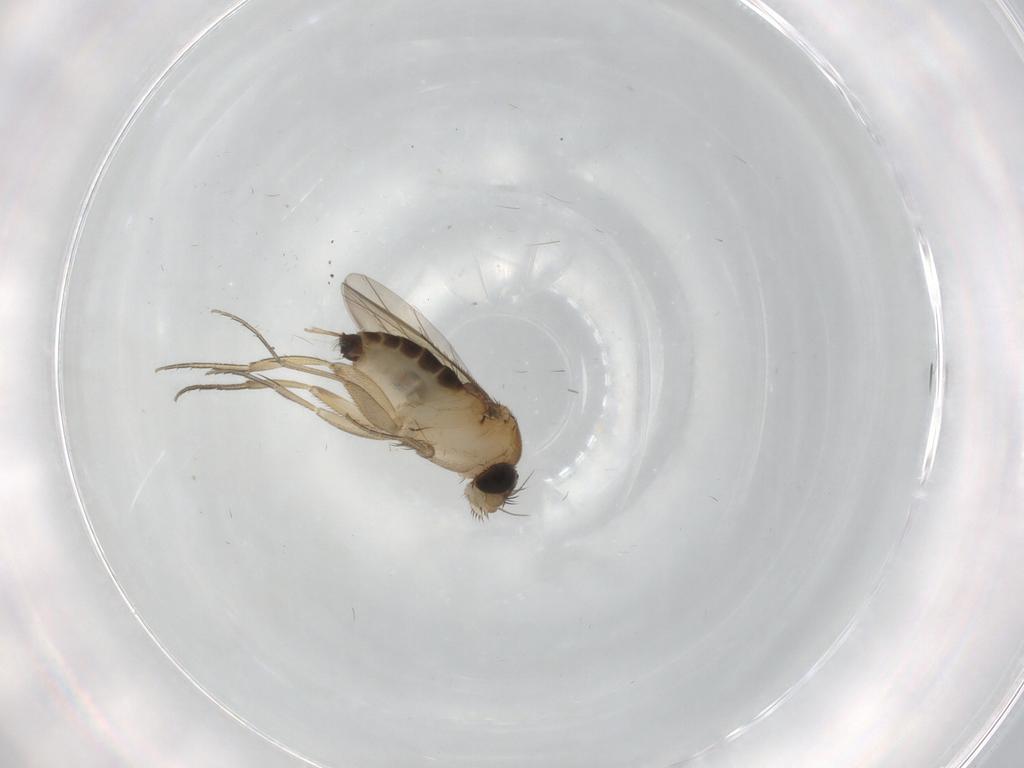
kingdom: Animalia
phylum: Arthropoda
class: Insecta
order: Diptera
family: Phoridae
